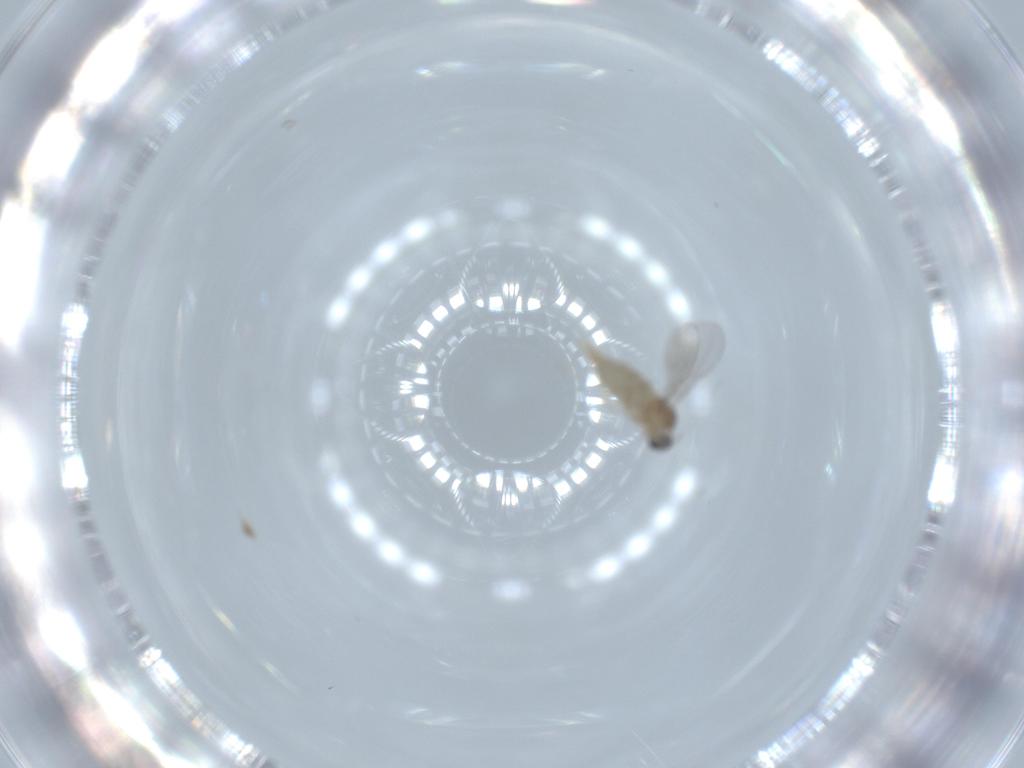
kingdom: Animalia
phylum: Arthropoda
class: Insecta
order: Diptera
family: Cecidomyiidae
